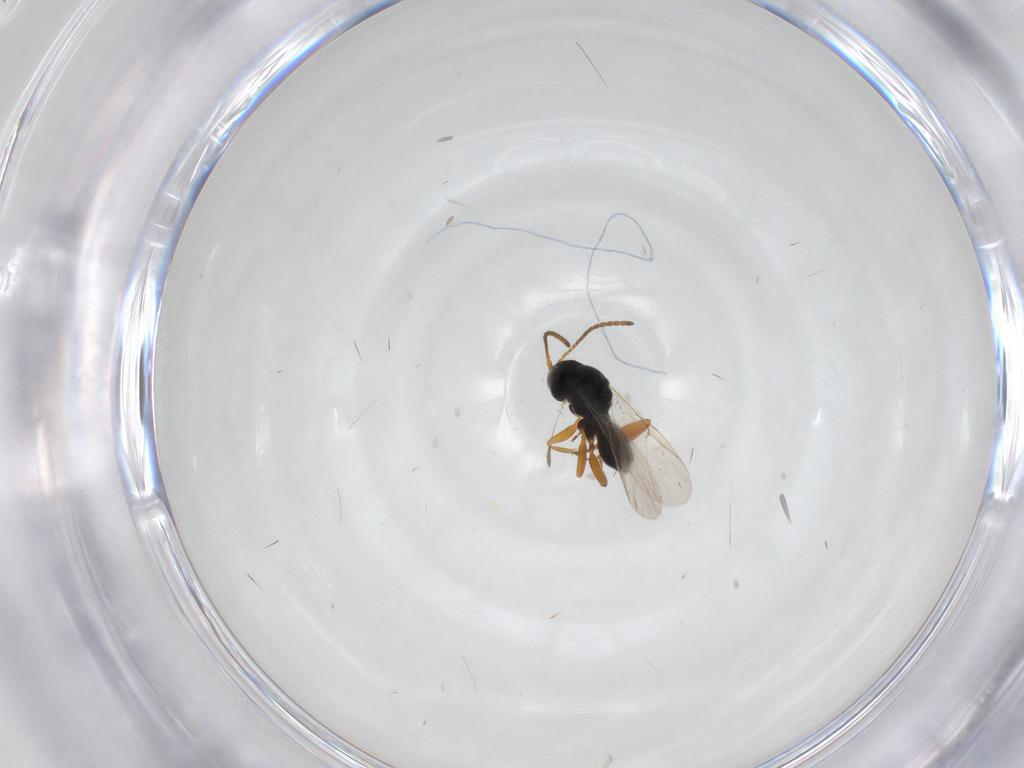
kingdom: Animalia
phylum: Arthropoda
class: Insecta
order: Hymenoptera
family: Cynipidae
